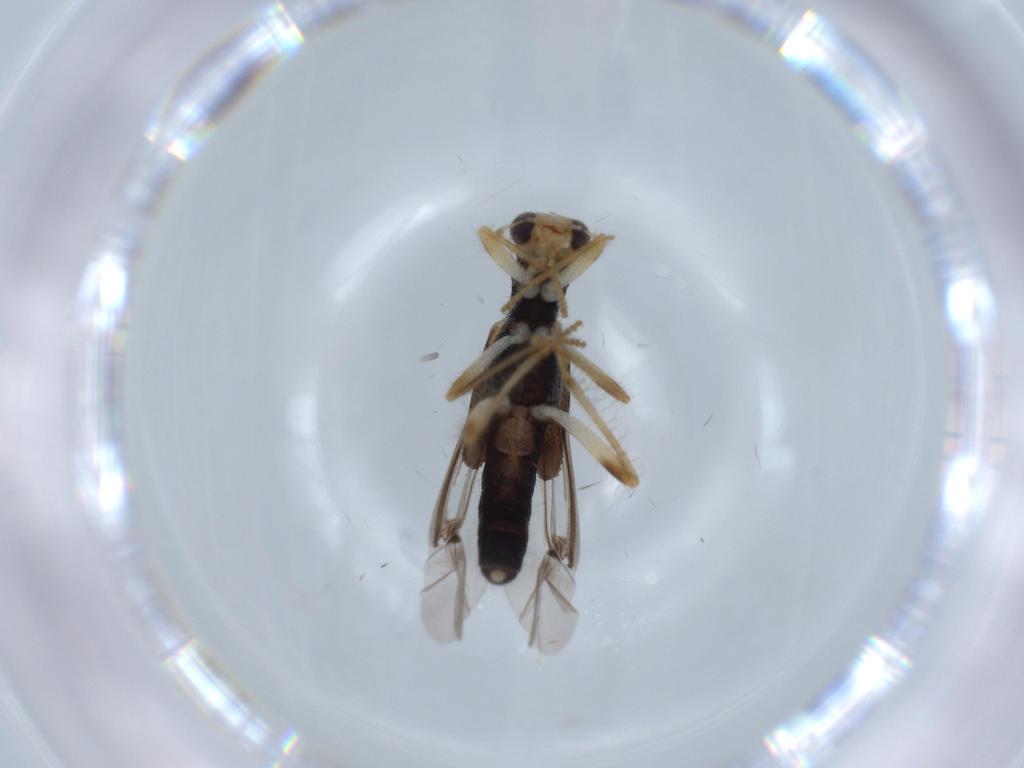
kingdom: Animalia
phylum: Arthropoda
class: Insecta
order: Coleoptera
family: Cleridae
